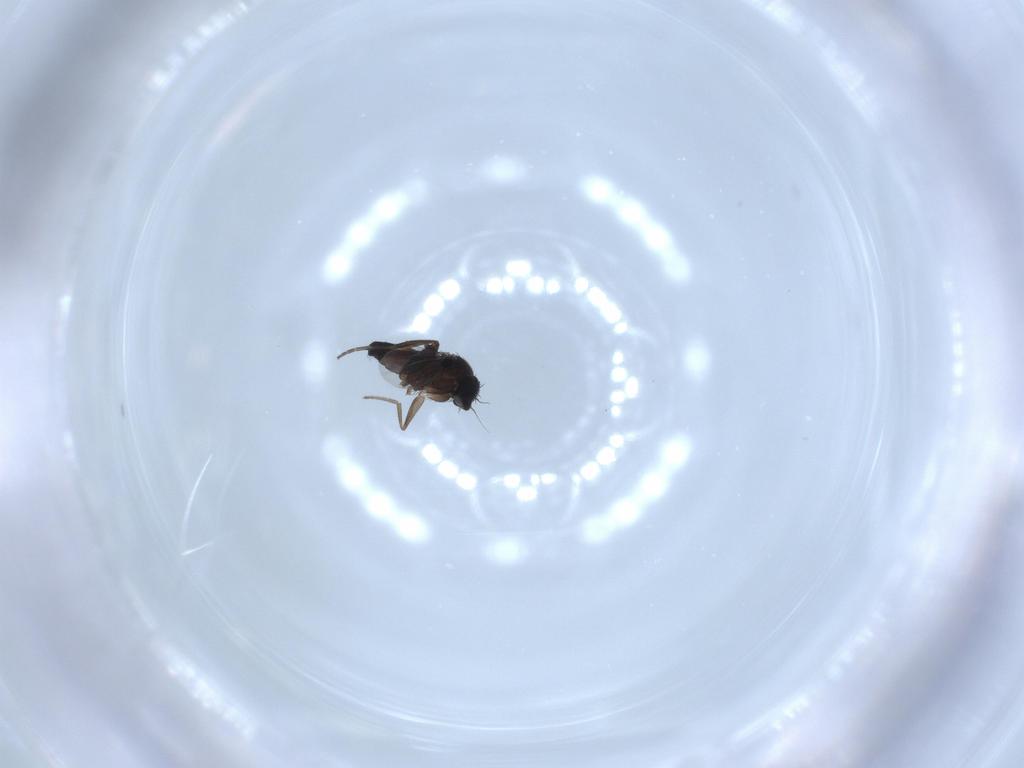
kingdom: Animalia
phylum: Arthropoda
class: Insecta
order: Diptera
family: Phoridae
